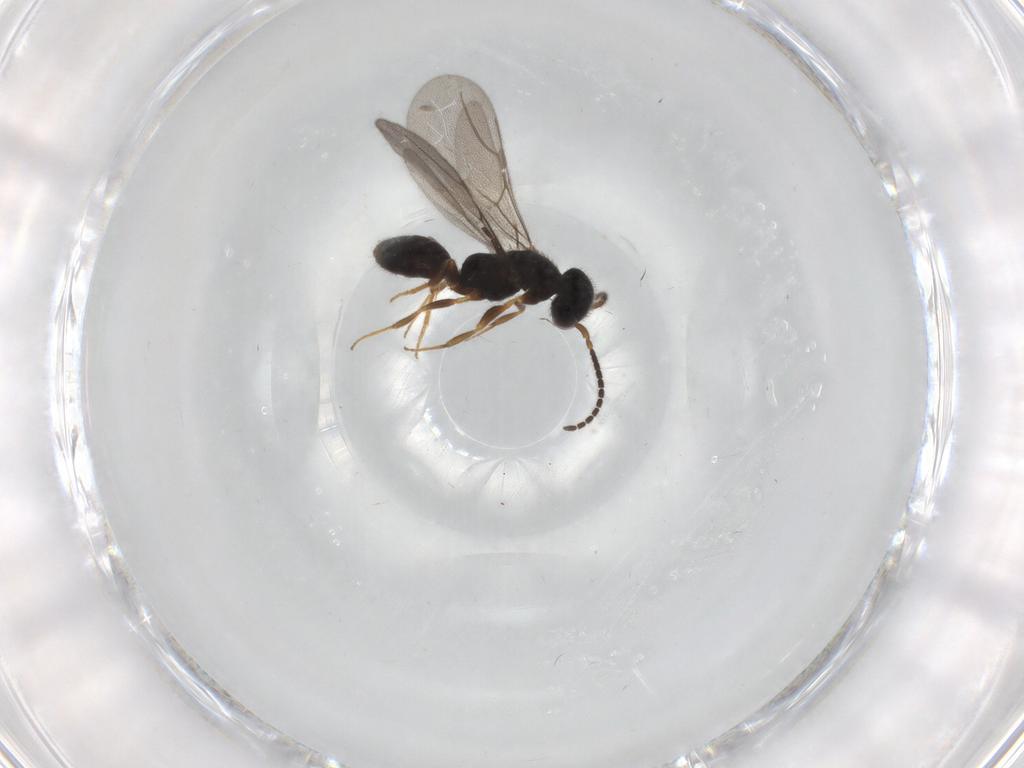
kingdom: Animalia
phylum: Arthropoda
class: Insecta
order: Hymenoptera
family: Bethylidae
